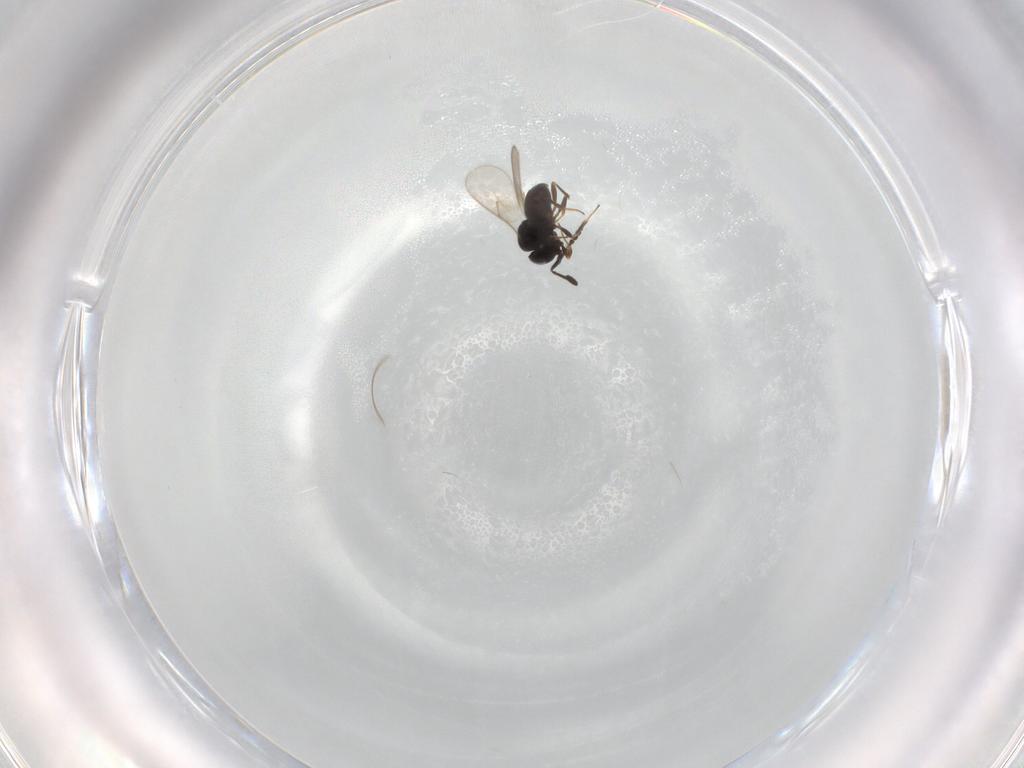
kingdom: Animalia
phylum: Arthropoda
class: Insecta
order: Hymenoptera
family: Scelionidae
